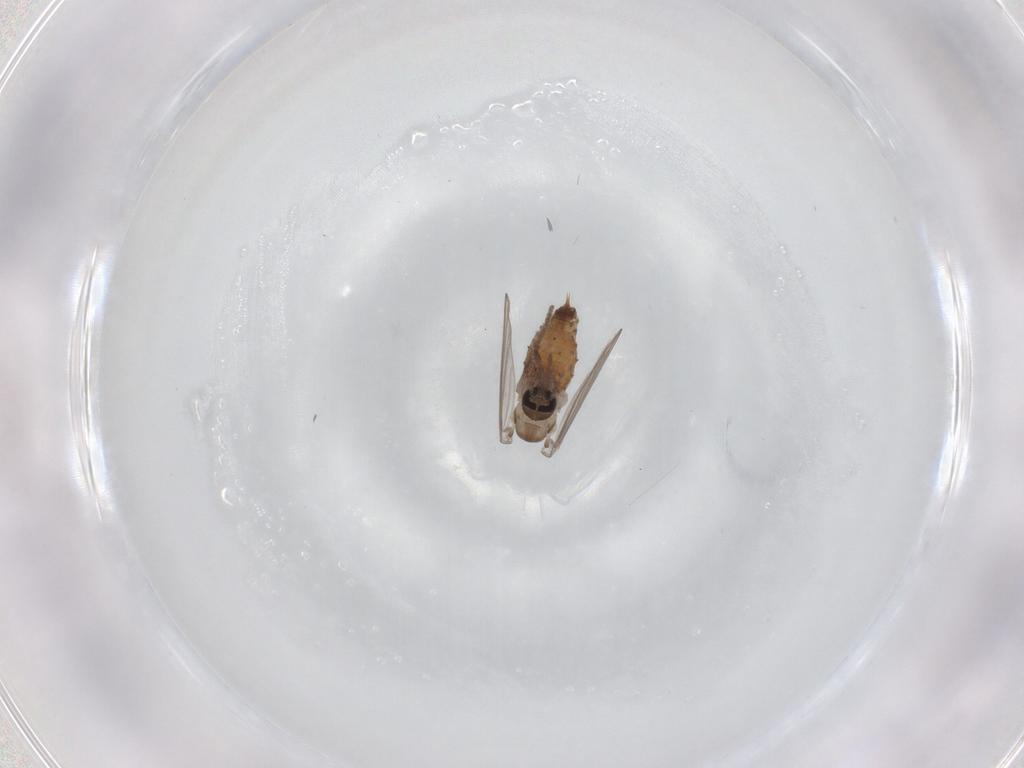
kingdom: Animalia
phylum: Arthropoda
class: Insecta
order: Diptera
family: Psychodidae
